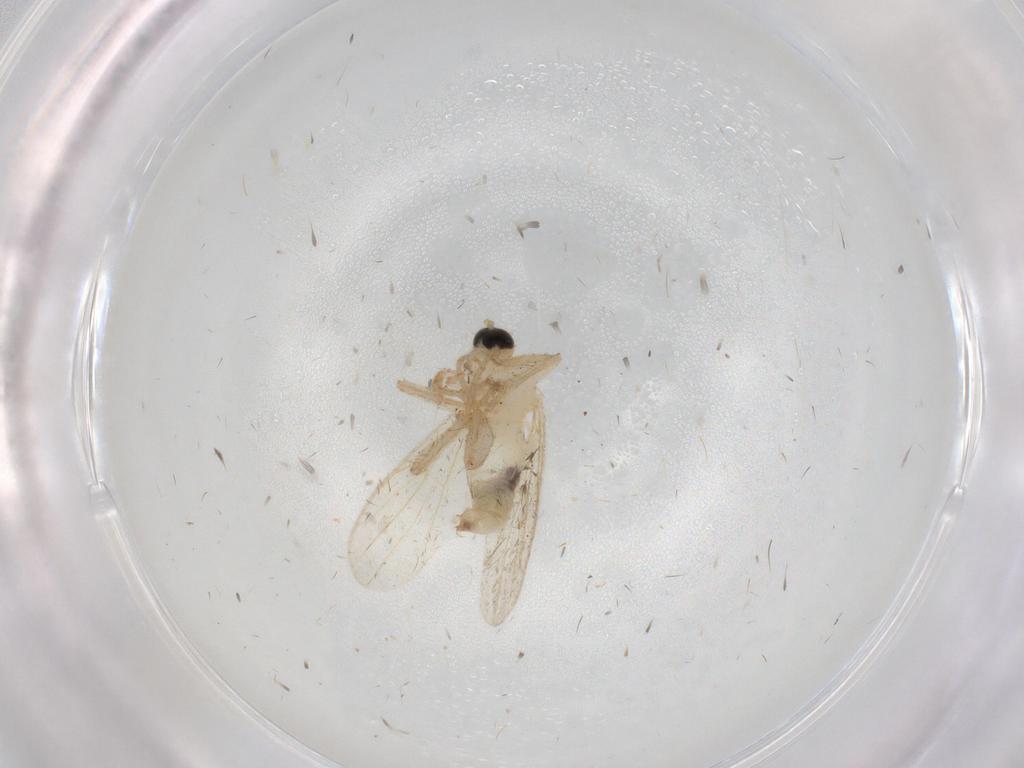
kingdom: Animalia
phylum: Arthropoda
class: Insecta
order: Diptera
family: Hybotidae
